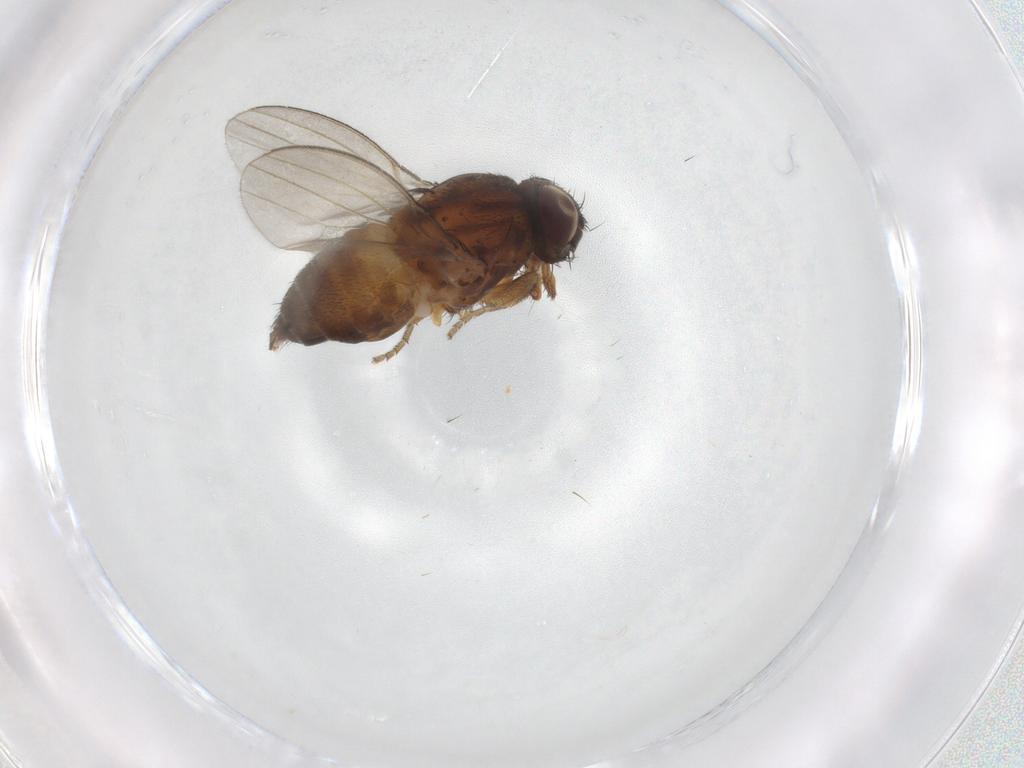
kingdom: Animalia
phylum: Arthropoda
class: Insecta
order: Diptera
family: Milichiidae
